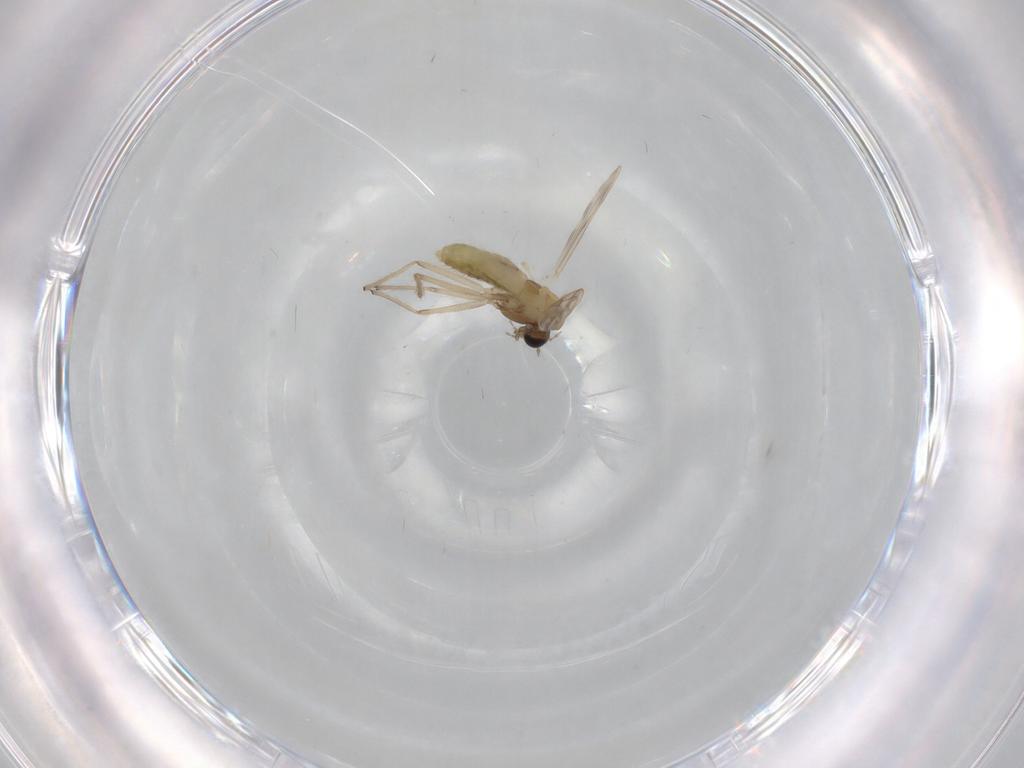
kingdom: Animalia
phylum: Arthropoda
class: Insecta
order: Diptera
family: Chironomidae
